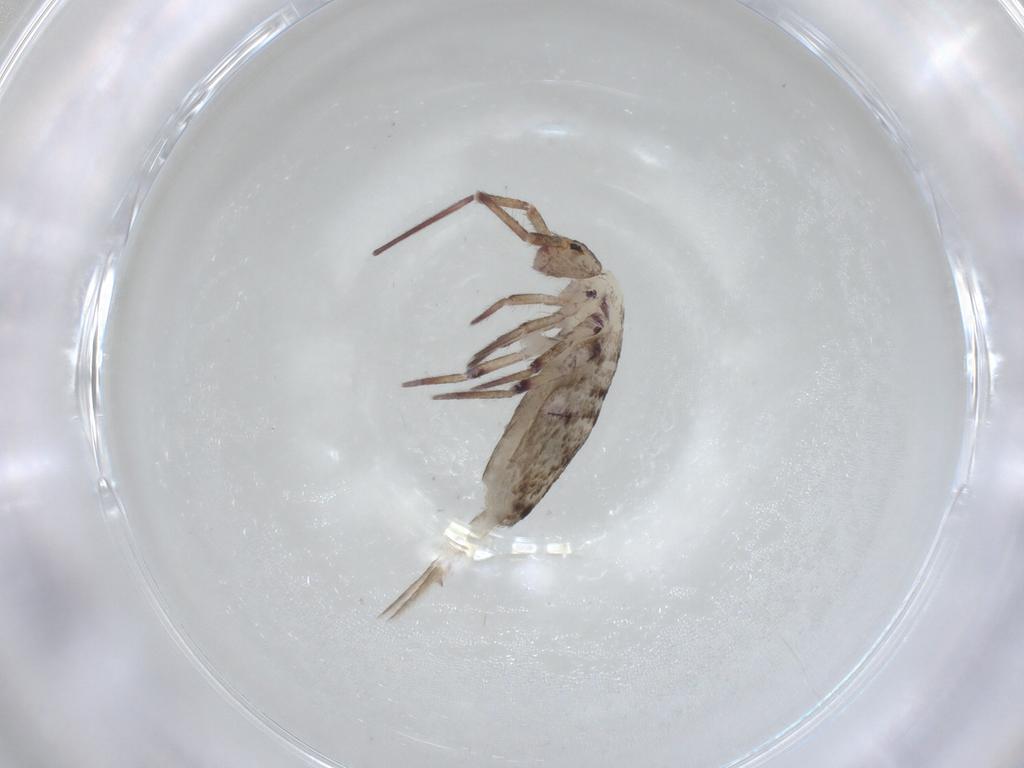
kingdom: Animalia
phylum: Arthropoda
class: Collembola
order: Entomobryomorpha
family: Entomobryidae
